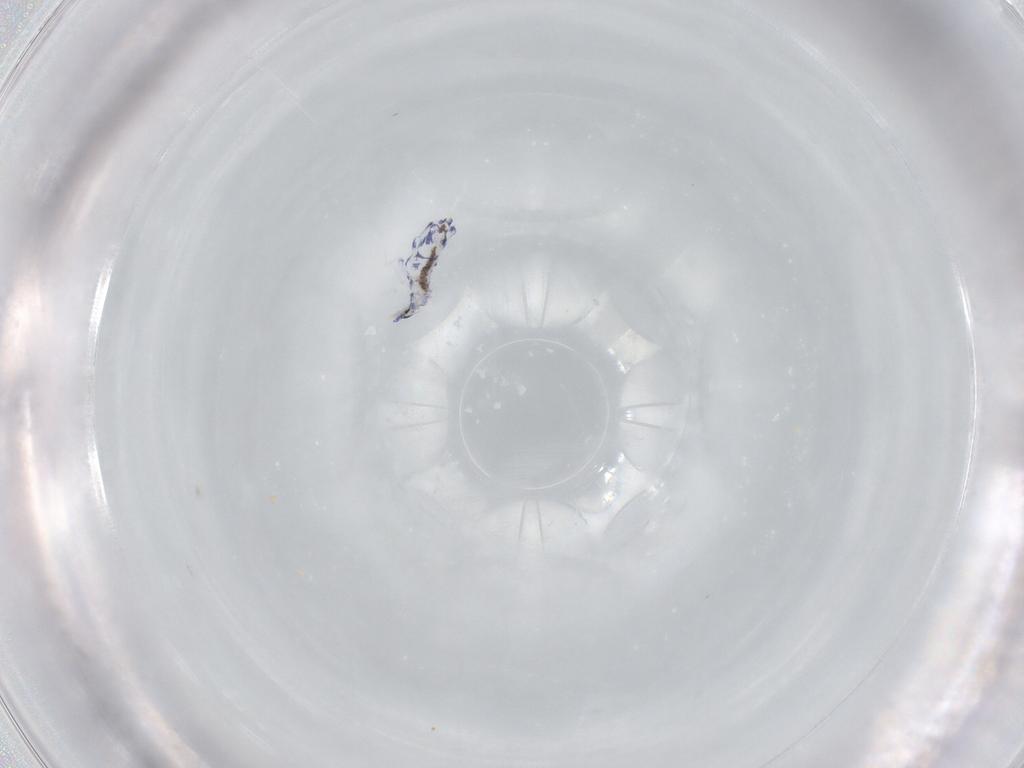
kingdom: Animalia
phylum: Arthropoda
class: Collembola
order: Entomobryomorpha
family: Entomobryidae
